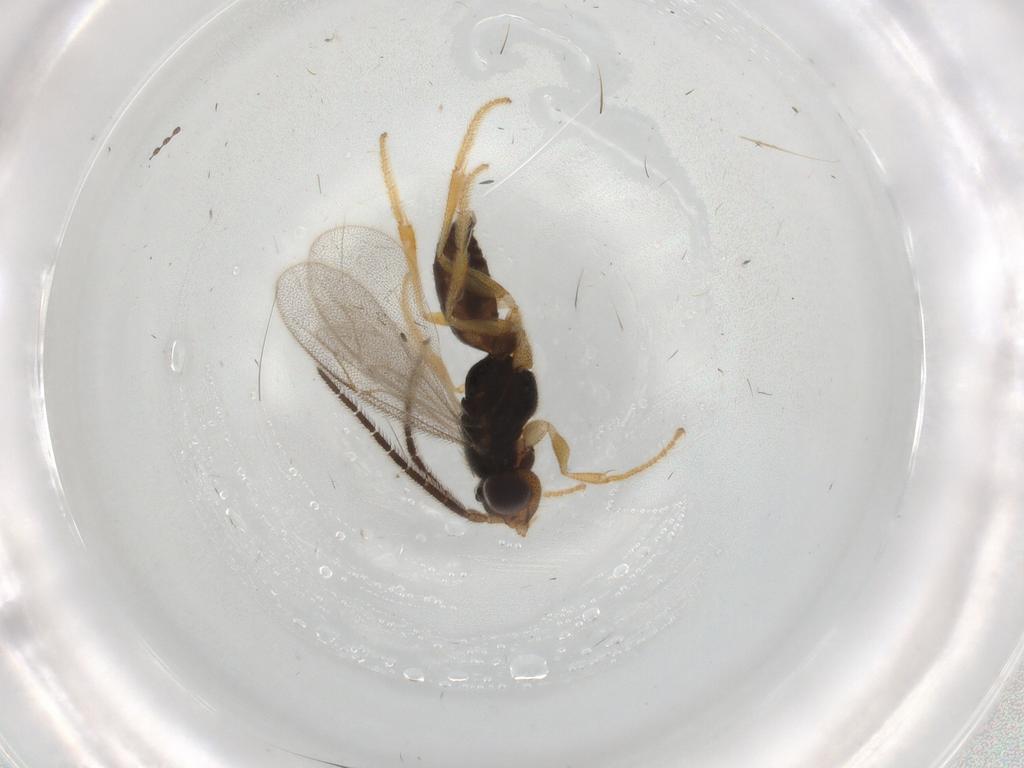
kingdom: Animalia
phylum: Arthropoda
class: Insecta
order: Hymenoptera
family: Dryinidae
